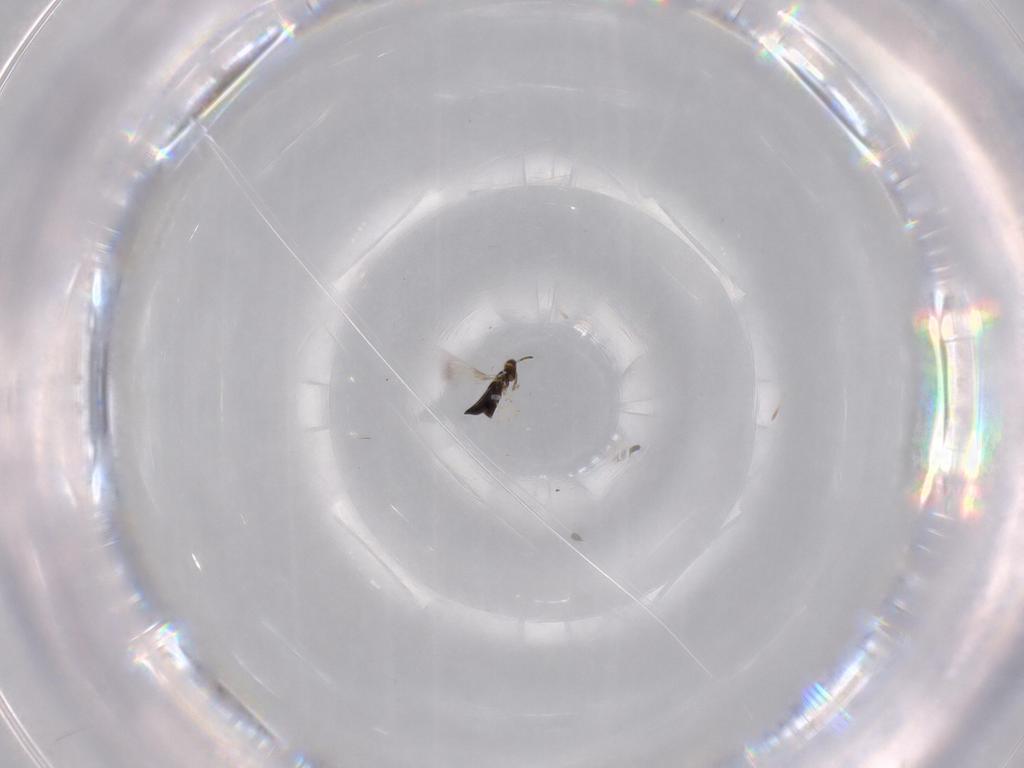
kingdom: Animalia
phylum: Arthropoda
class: Insecta
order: Hymenoptera
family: Signiphoridae
